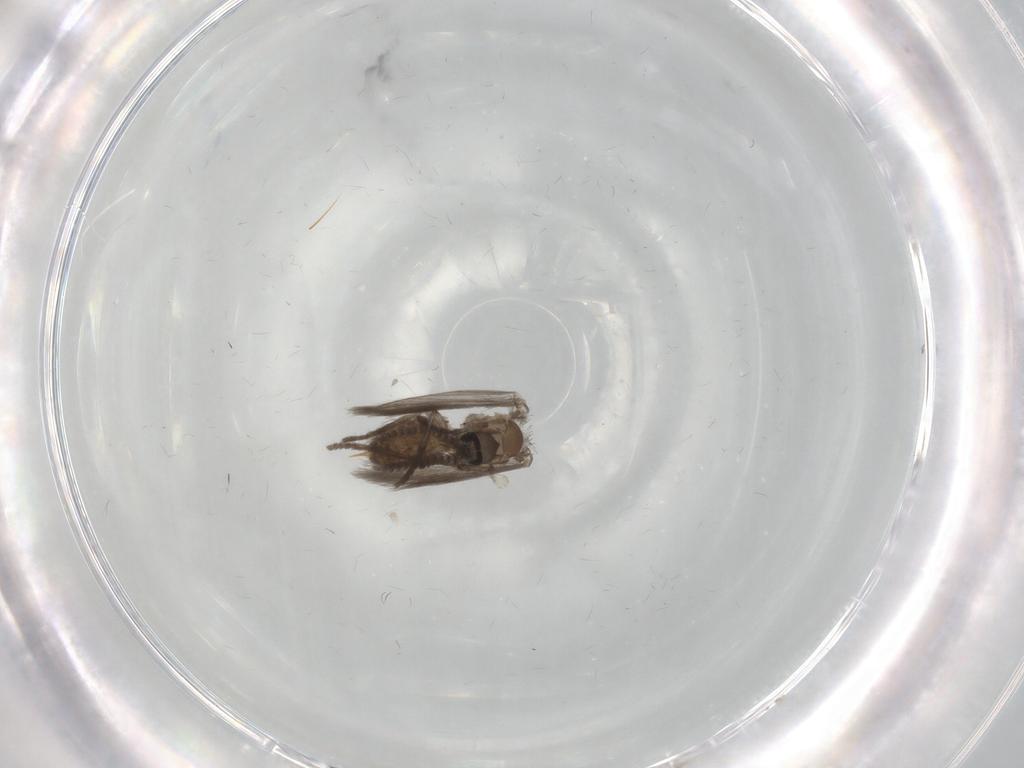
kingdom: Animalia
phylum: Arthropoda
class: Insecta
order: Diptera
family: Psychodidae
